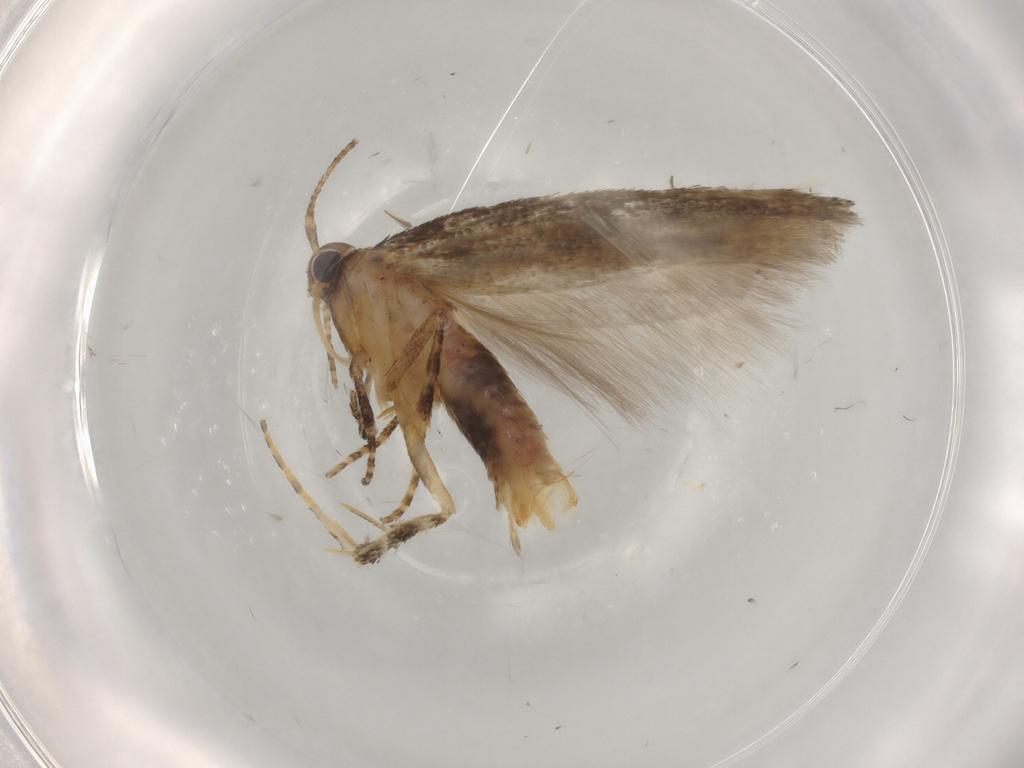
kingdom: Animalia
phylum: Arthropoda
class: Insecta
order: Lepidoptera
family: Gelechiidae
